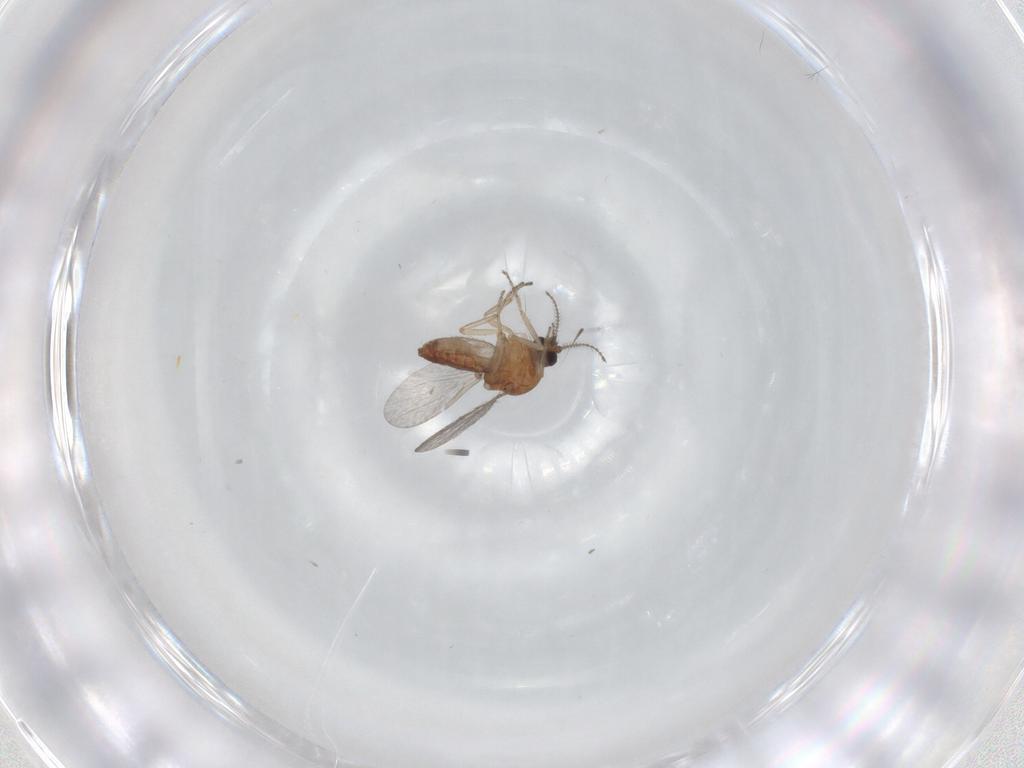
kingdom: Animalia
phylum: Arthropoda
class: Insecta
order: Diptera
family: Ceratopogonidae
